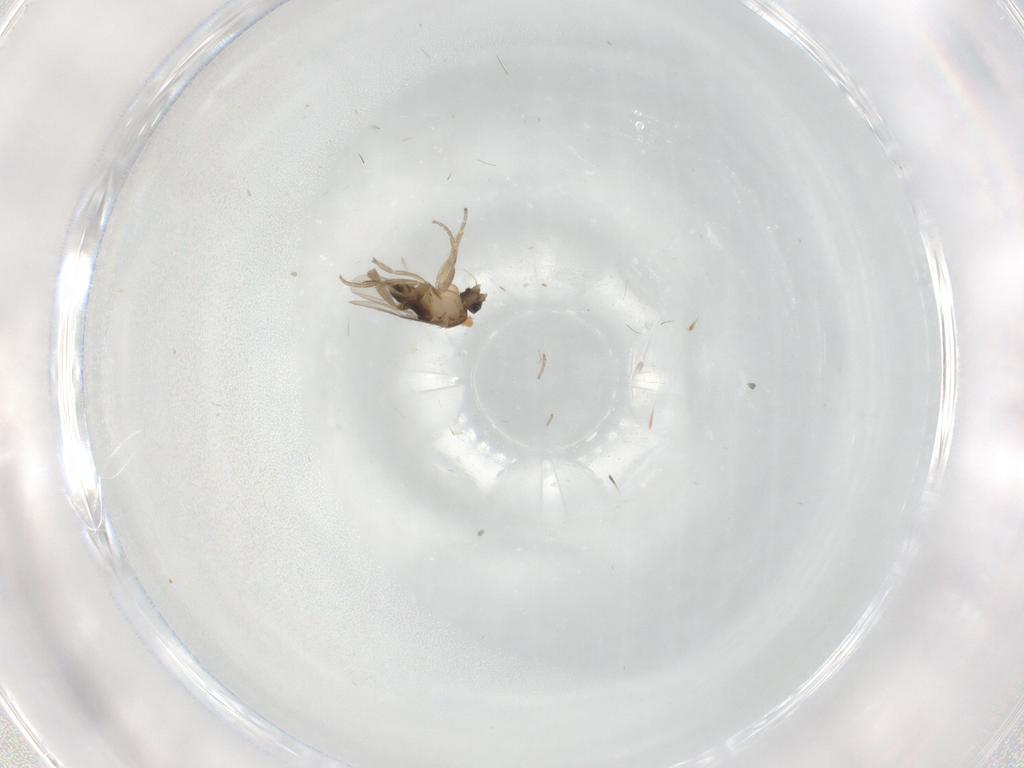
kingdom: Animalia
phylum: Arthropoda
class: Insecta
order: Diptera
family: Phoridae
